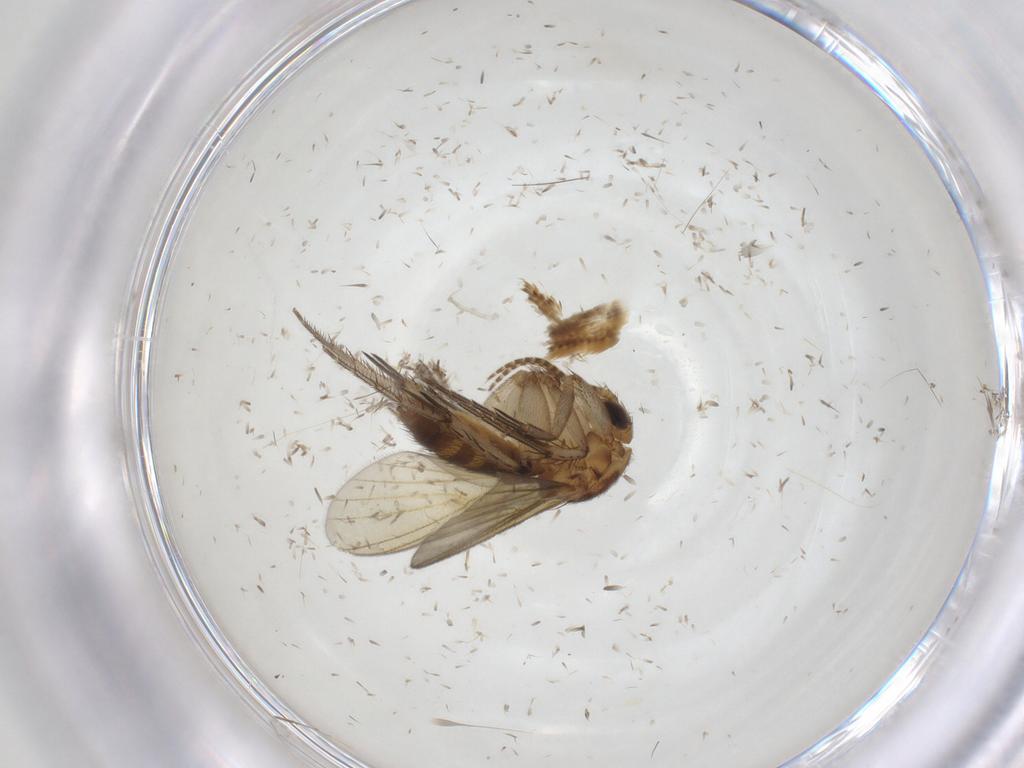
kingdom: Animalia
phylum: Arthropoda
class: Insecta
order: Diptera
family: Mycetophilidae
